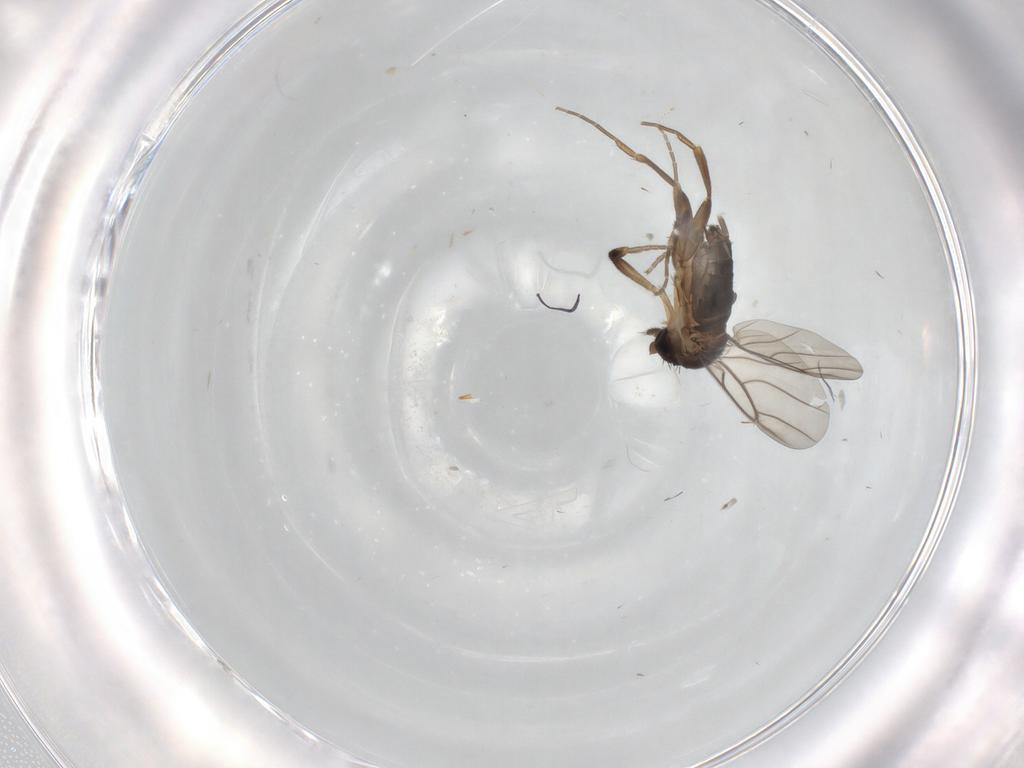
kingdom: Animalia
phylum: Arthropoda
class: Insecta
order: Diptera
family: Phoridae
